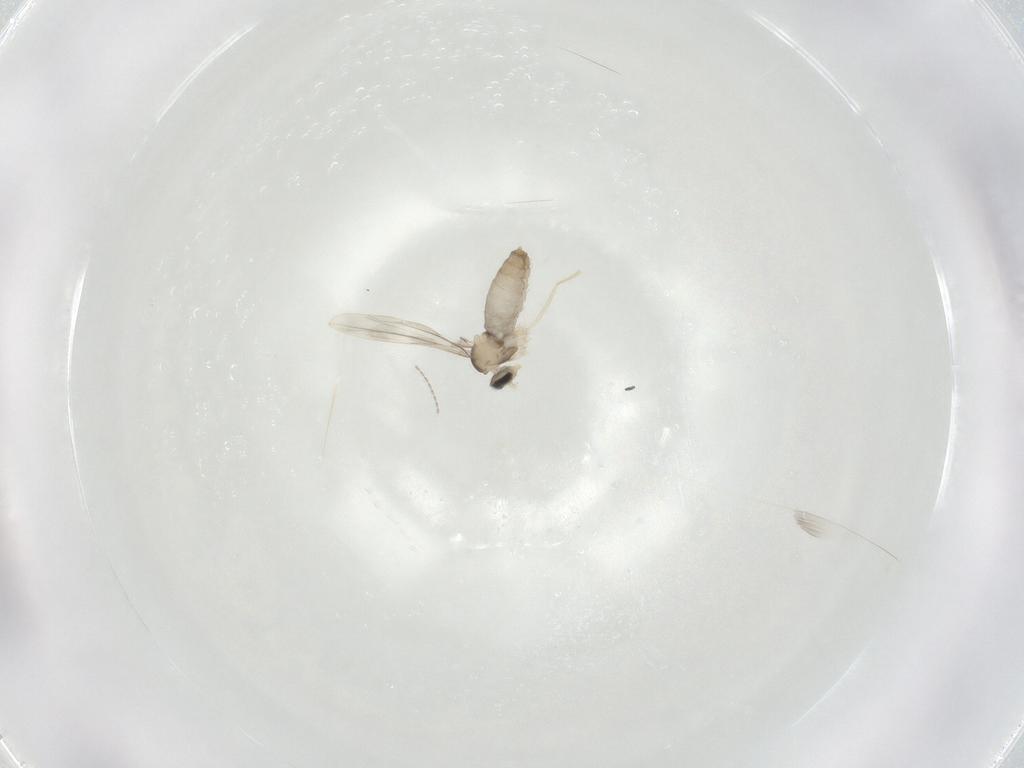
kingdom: Animalia
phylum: Arthropoda
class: Insecta
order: Diptera
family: Cecidomyiidae
